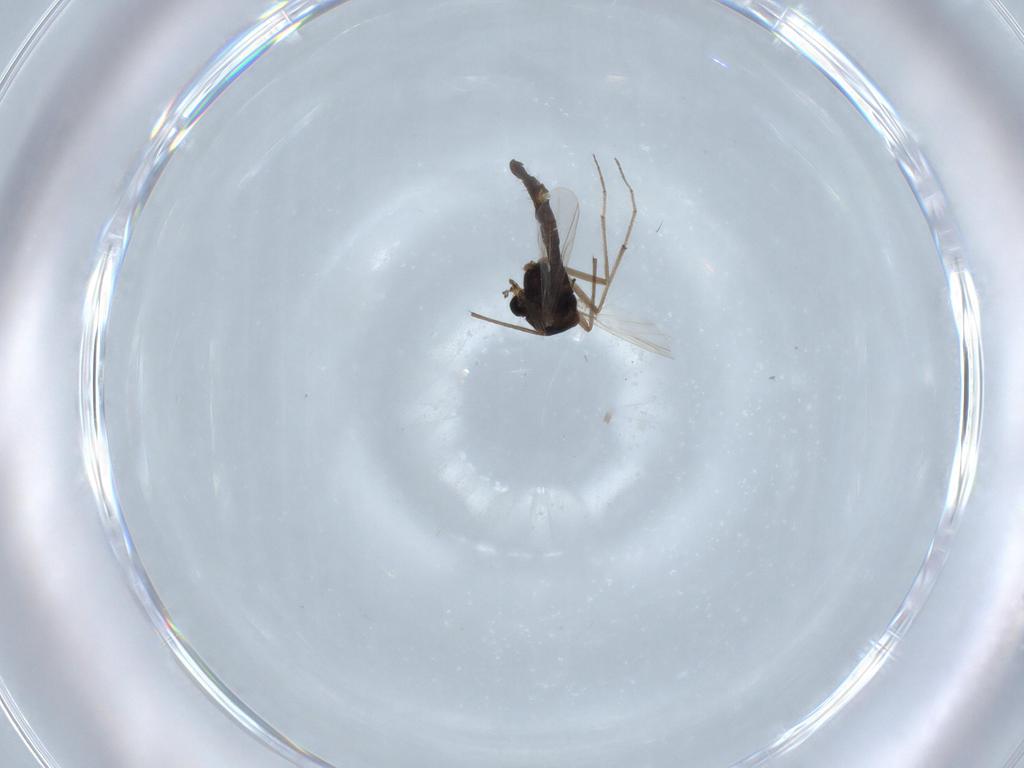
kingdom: Animalia
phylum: Arthropoda
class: Insecta
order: Diptera
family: Chironomidae
